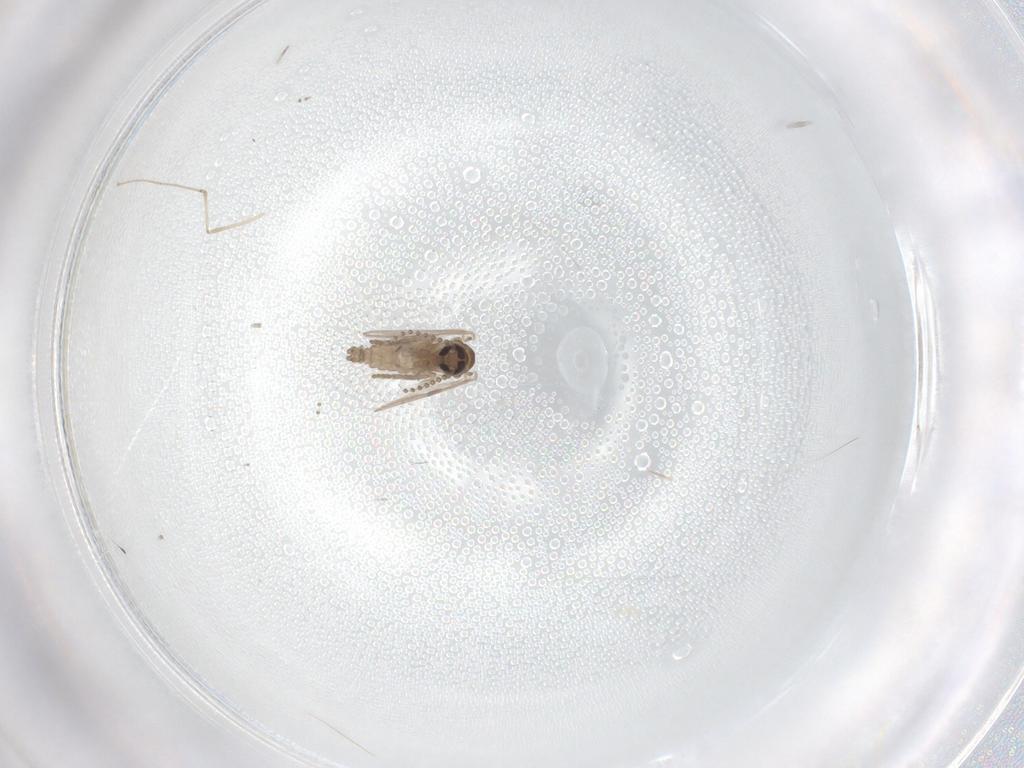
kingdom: Animalia
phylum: Arthropoda
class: Insecta
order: Diptera
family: Psychodidae
